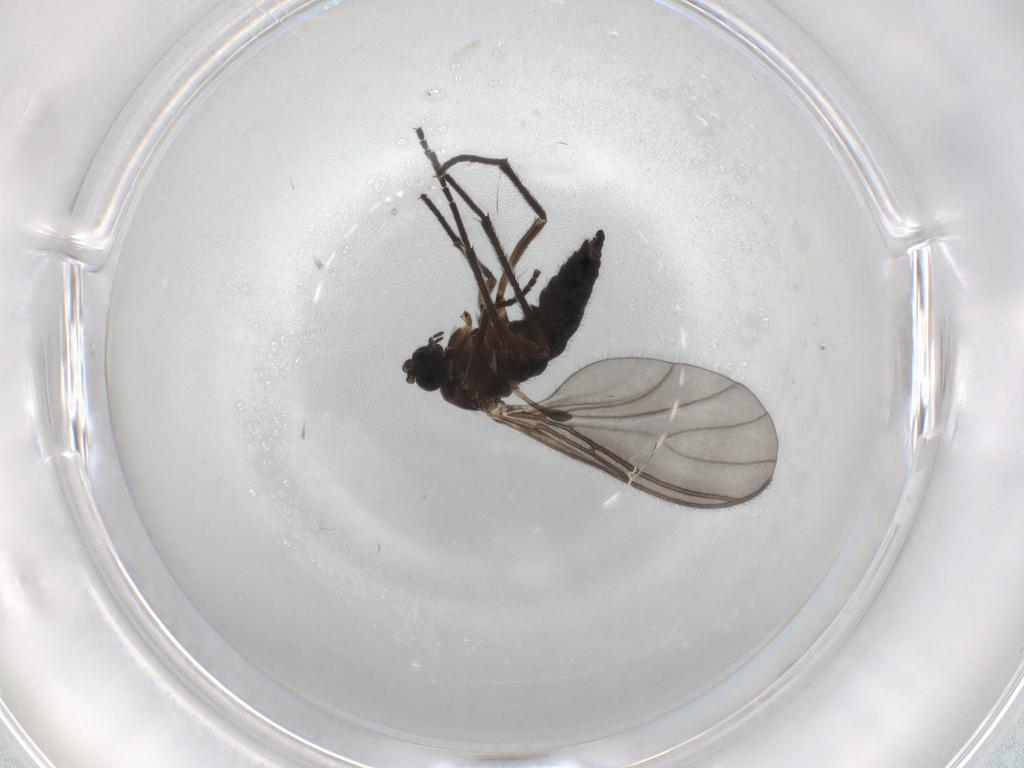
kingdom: Animalia
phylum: Arthropoda
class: Insecta
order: Diptera
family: Sciaridae
